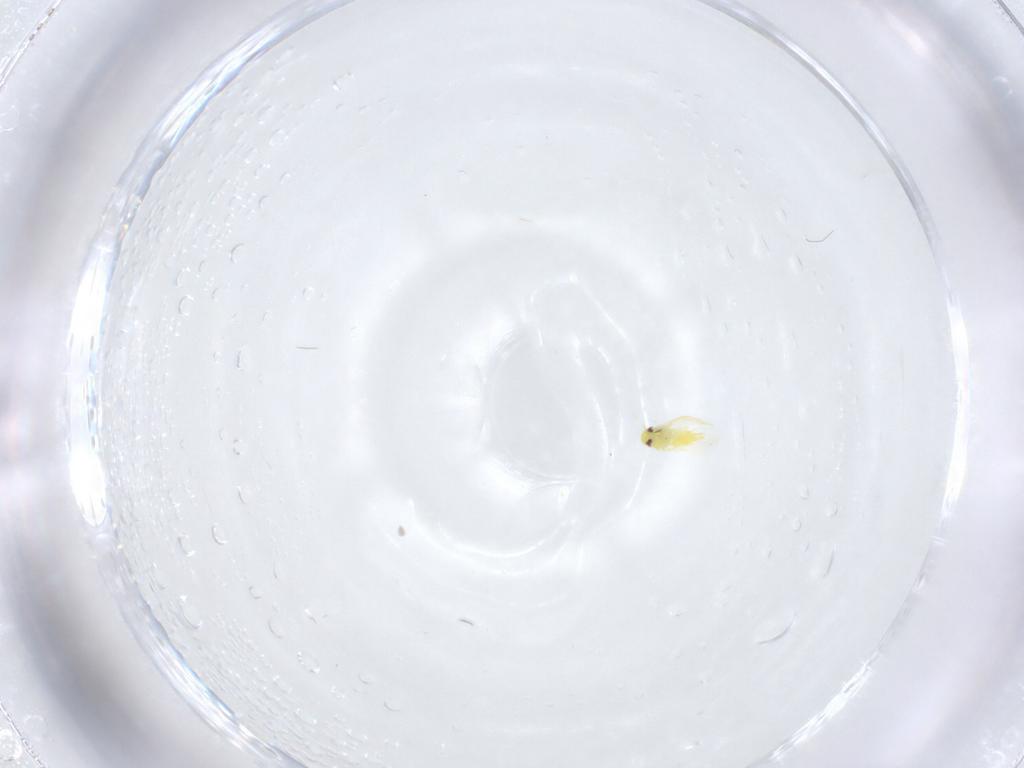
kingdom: Animalia
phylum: Arthropoda
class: Insecta
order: Hemiptera
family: Aleyrodidae
